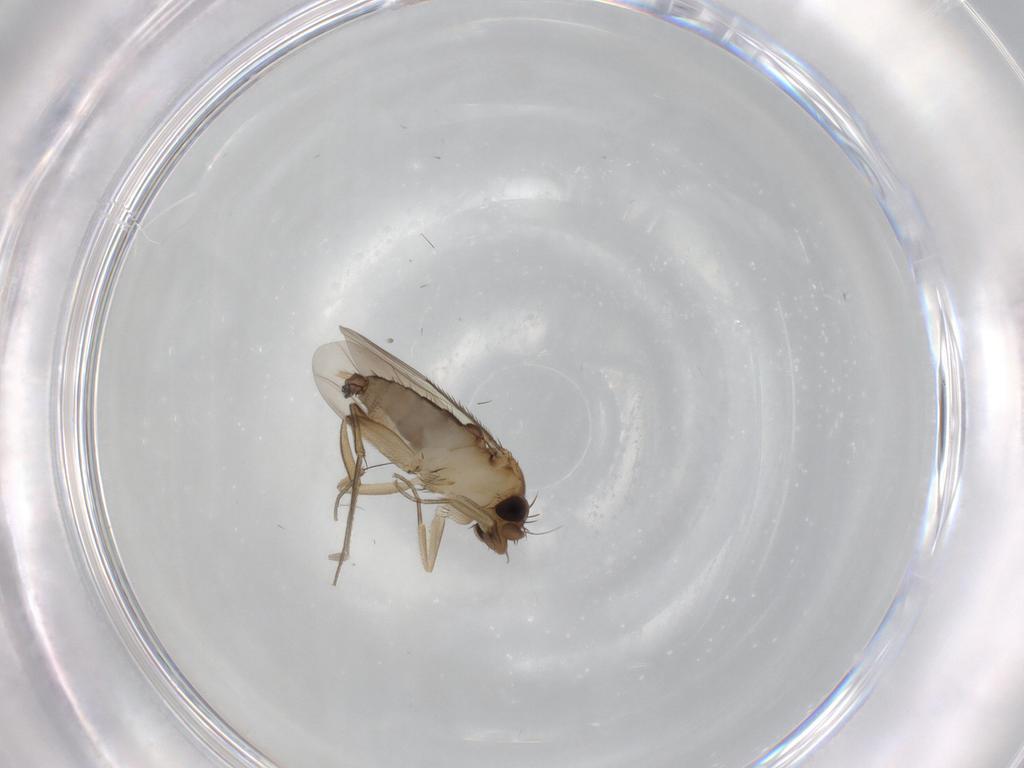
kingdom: Animalia
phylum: Arthropoda
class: Insecta
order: Diptera
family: Phoridae
